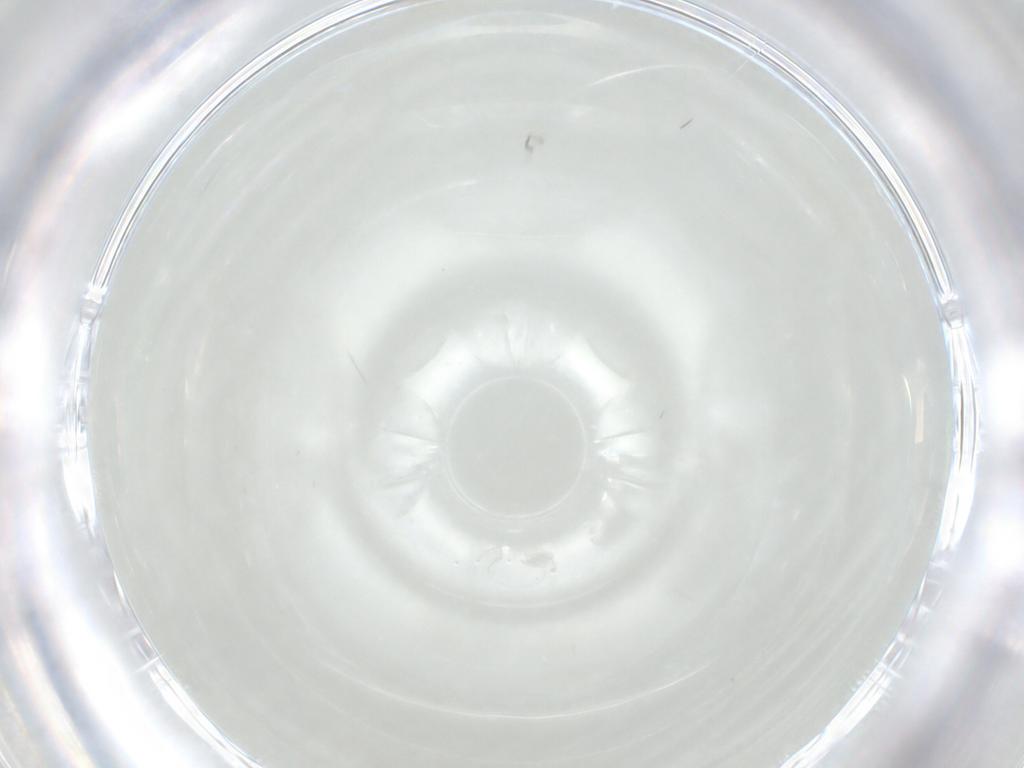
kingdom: Animalia
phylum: Arthropoda
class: Insecta
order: Hymenoptera
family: Mymaridae
